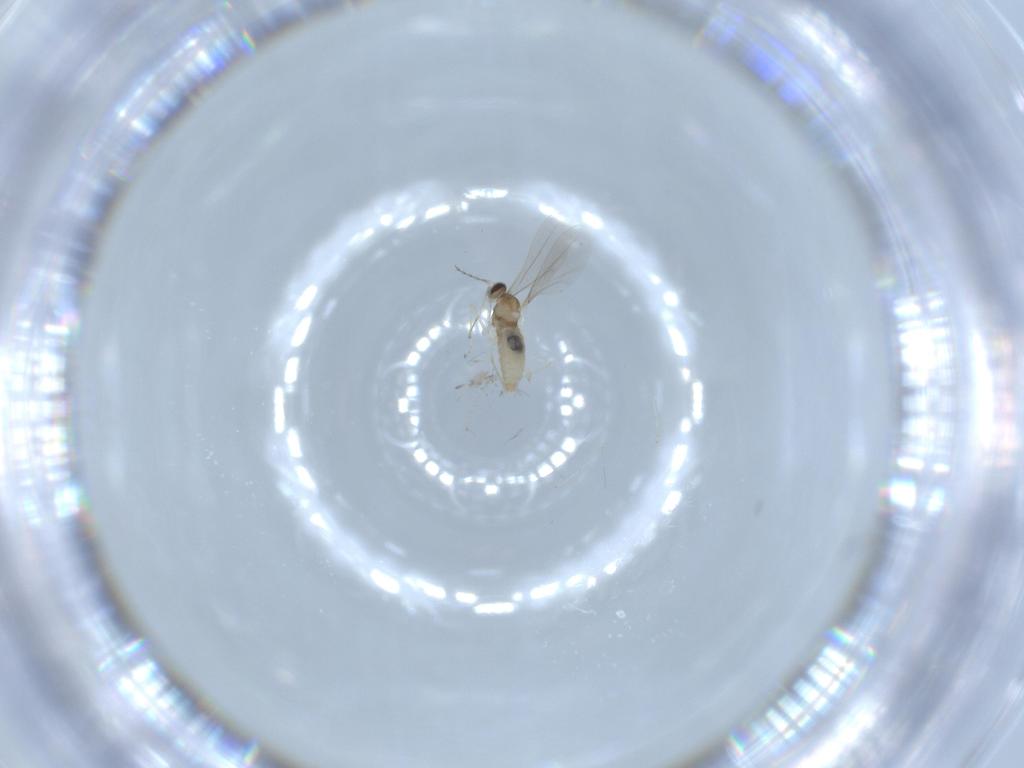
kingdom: Animalia
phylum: Arthropoda
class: Insecta
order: Diptera
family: Cecidomyiidae
